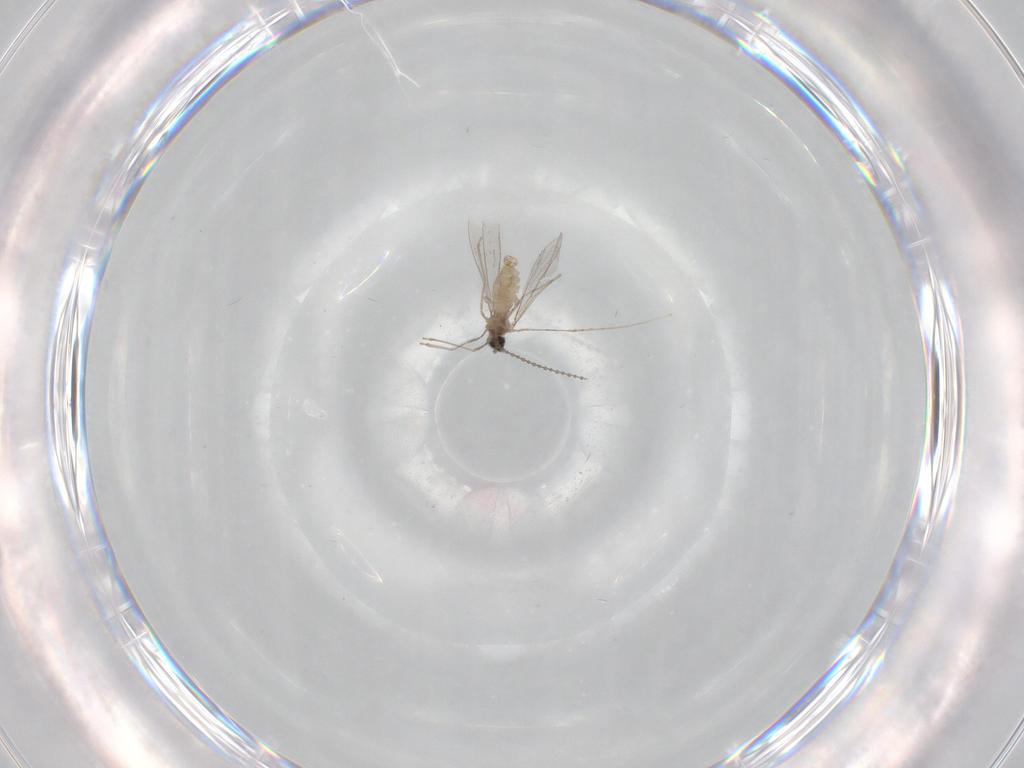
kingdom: Animalia
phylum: Arthropoda
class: Insecta
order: Diptera
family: Cecidomyiidae
